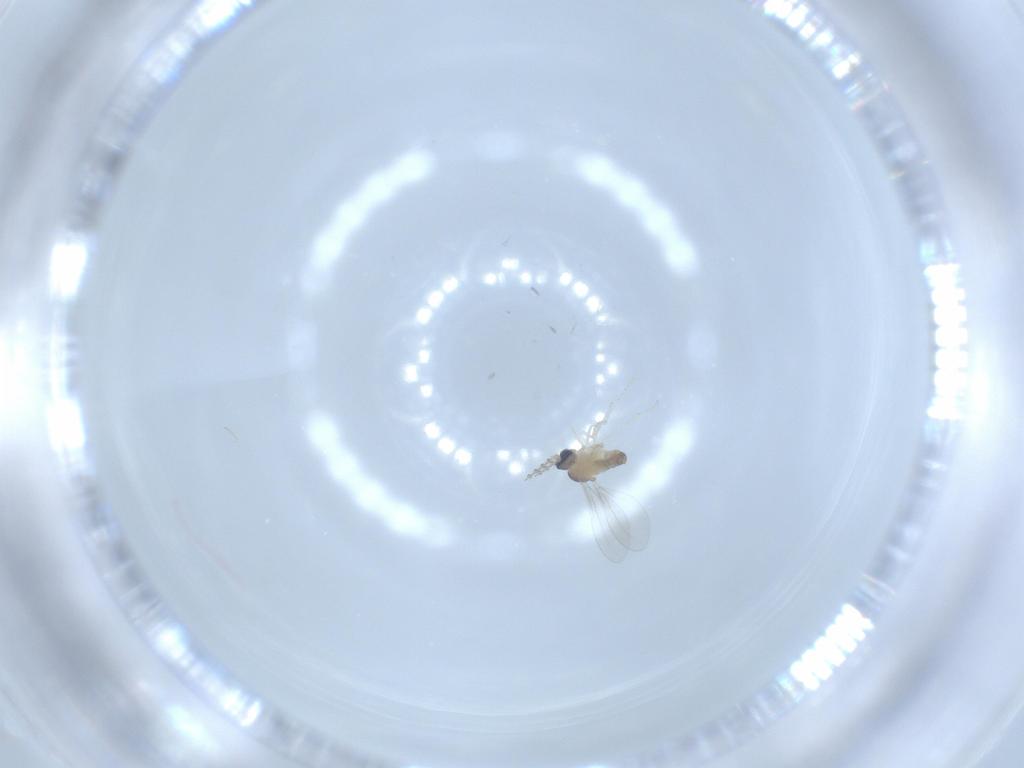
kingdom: Animalia
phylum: Arthropoda
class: Insecta
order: Diptera
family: Cecidomyiidae
